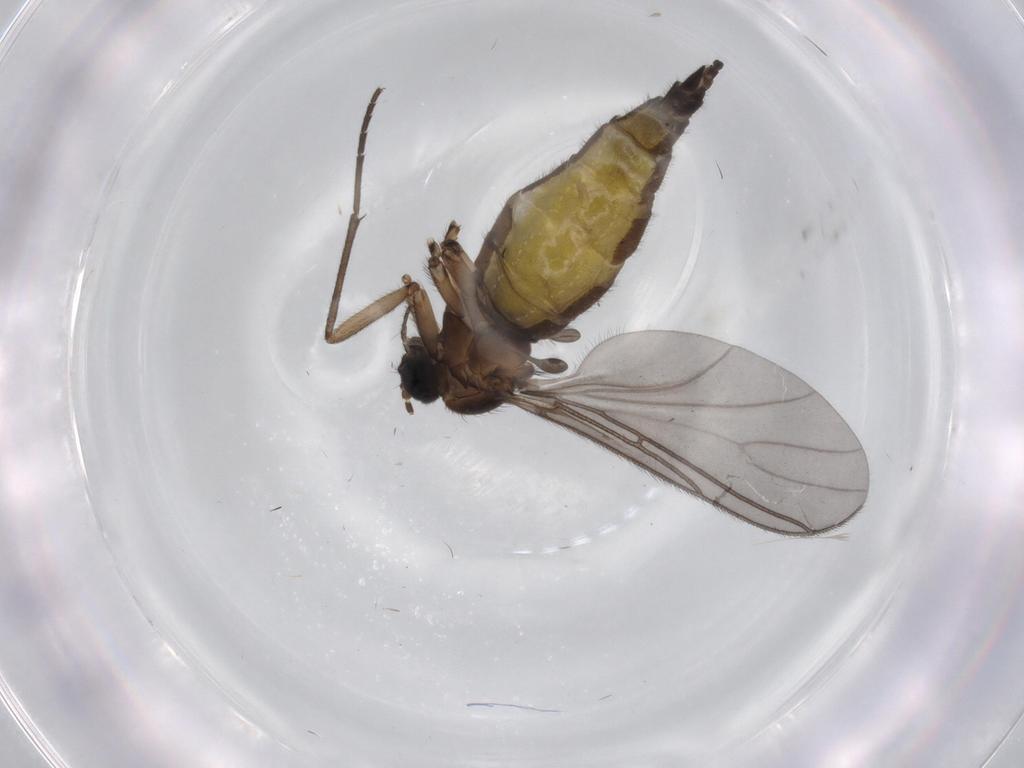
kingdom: Animalia
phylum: Arthropoda
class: Insecta
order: Diptera
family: Sciaridae
